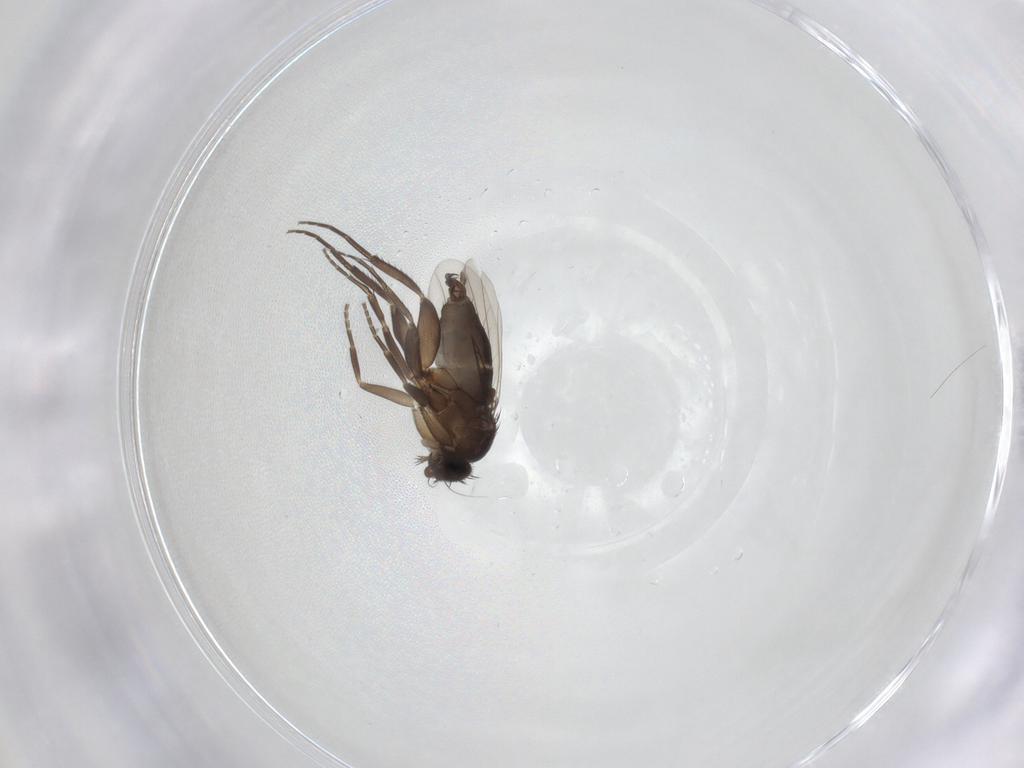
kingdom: Animalia
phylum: Arthropoda
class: Insecta
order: Diptera
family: Phoridae
